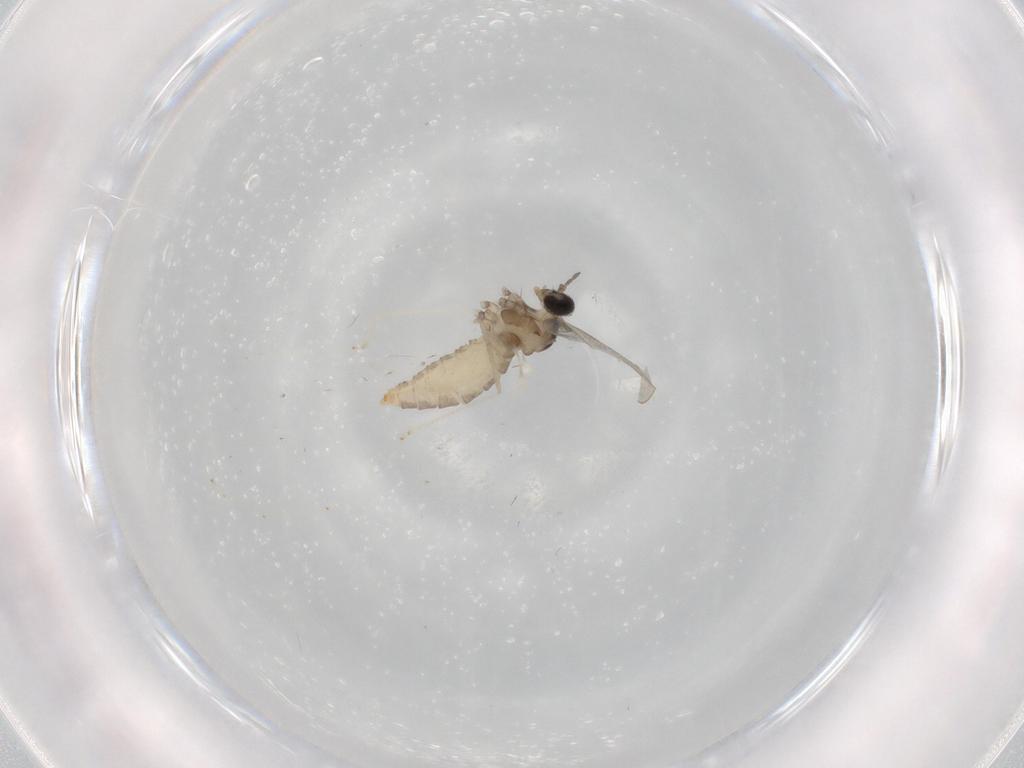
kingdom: Animalia
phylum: Arthropoda
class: Insecta
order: Diptera
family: Cecidomyiidae
